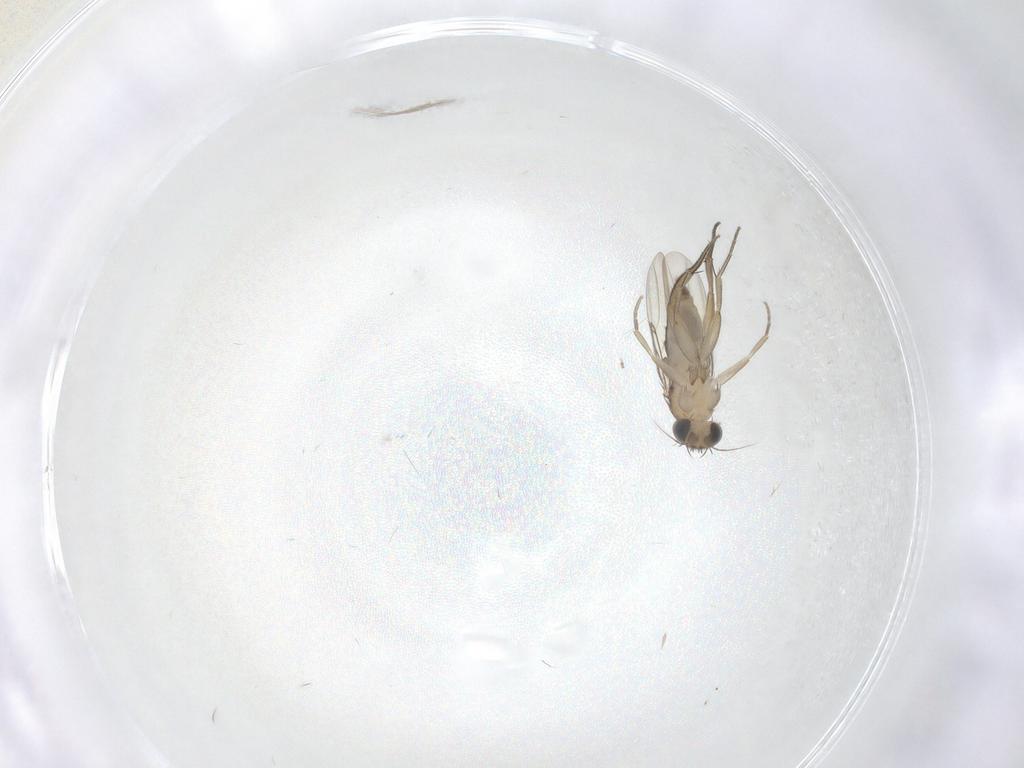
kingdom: Animalia
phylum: Arthropoda
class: Insecta
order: Diptera
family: Phoridae
